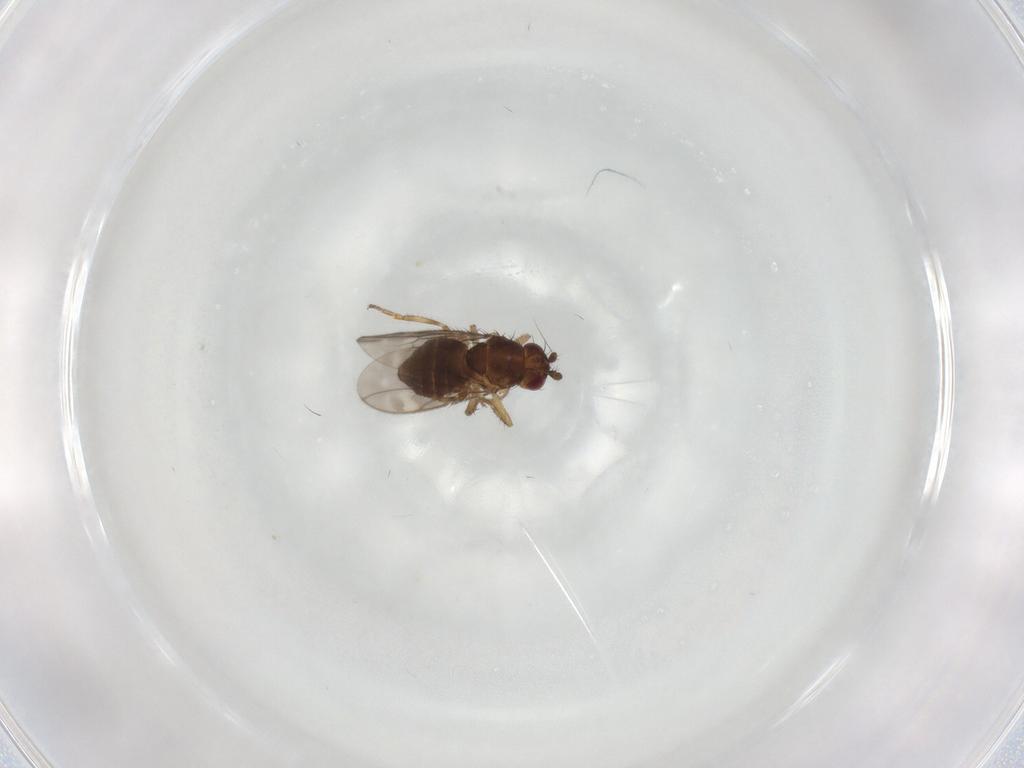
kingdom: Animalia
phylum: Arthropoda
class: Insecta
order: Diptera
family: Sphaeroceridae
